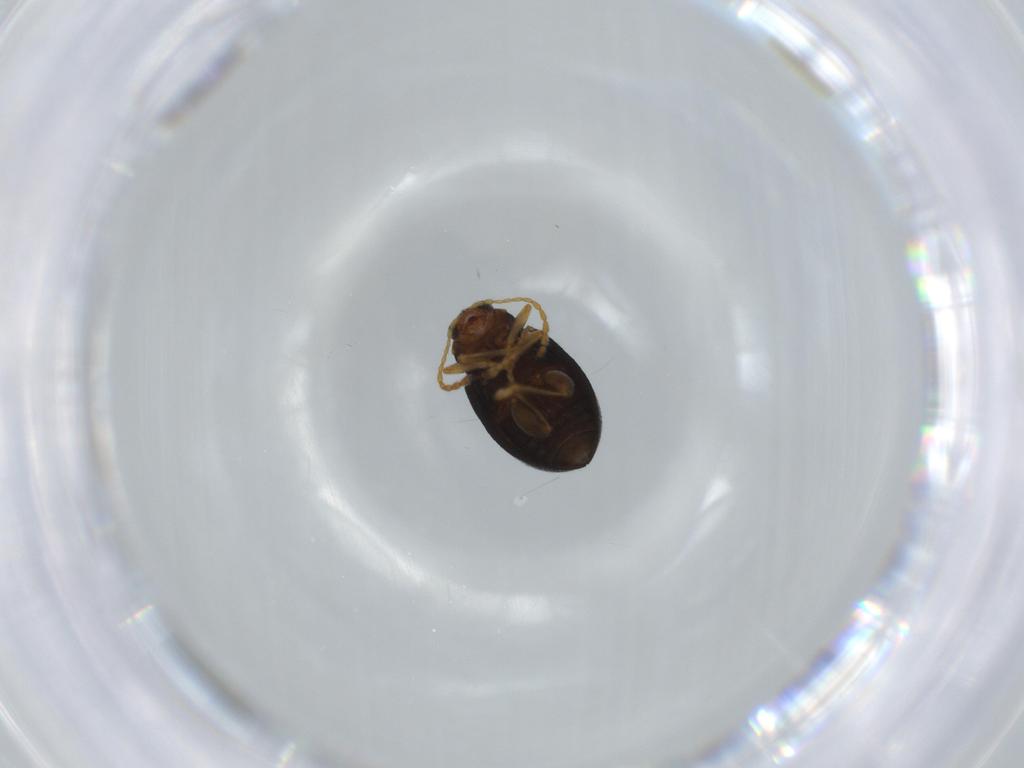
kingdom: Animalia
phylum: Arthropoda
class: Insecta
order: Coleoptera
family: Chrysomelidae
